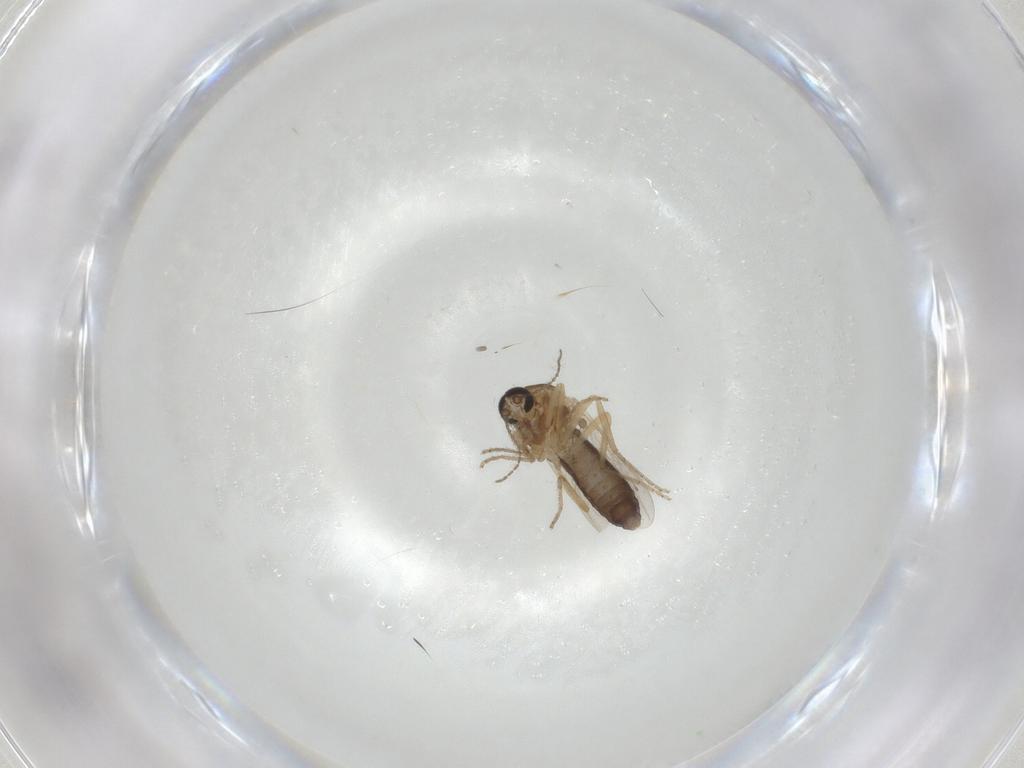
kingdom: Animalia
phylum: Arthropoda
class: Insecta
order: Diptera
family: Ceratopogonidae
